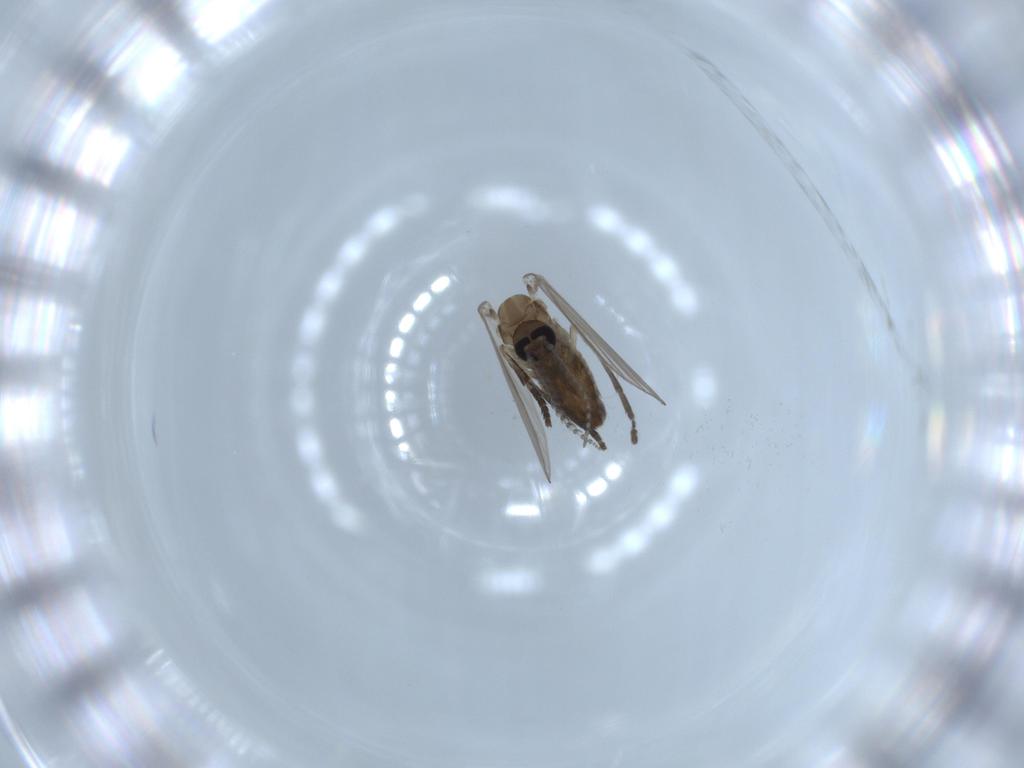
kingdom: Animalia
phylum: Arthropoda
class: Insecta
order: Diptera
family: Psychodidae
